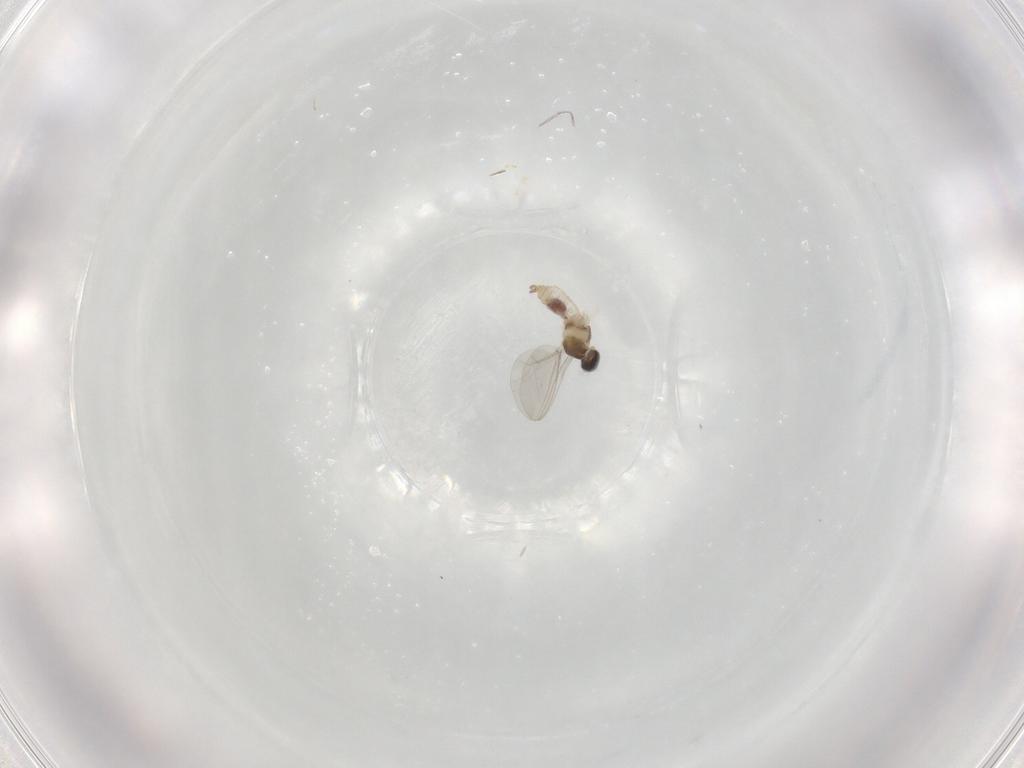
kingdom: Animalia
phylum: Arthropoda
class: Insecta
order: Diptera
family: Cecidomyiidae
